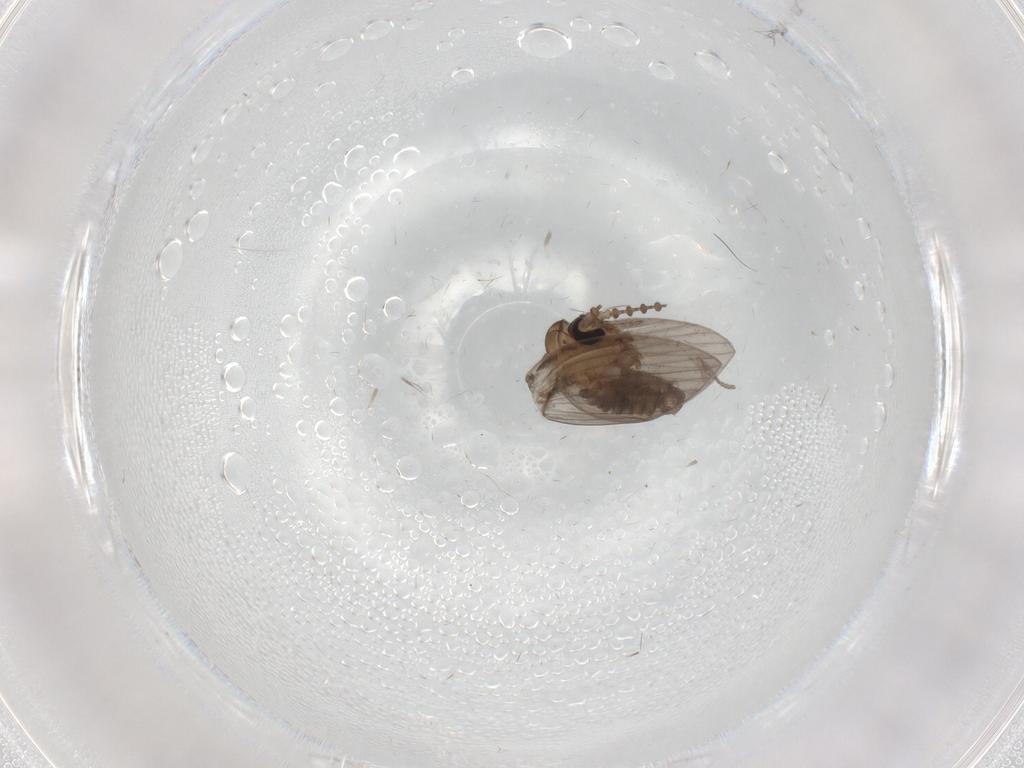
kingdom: Animalia
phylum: Arthropoda
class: Insecta
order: Diptera
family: Psychodidae
